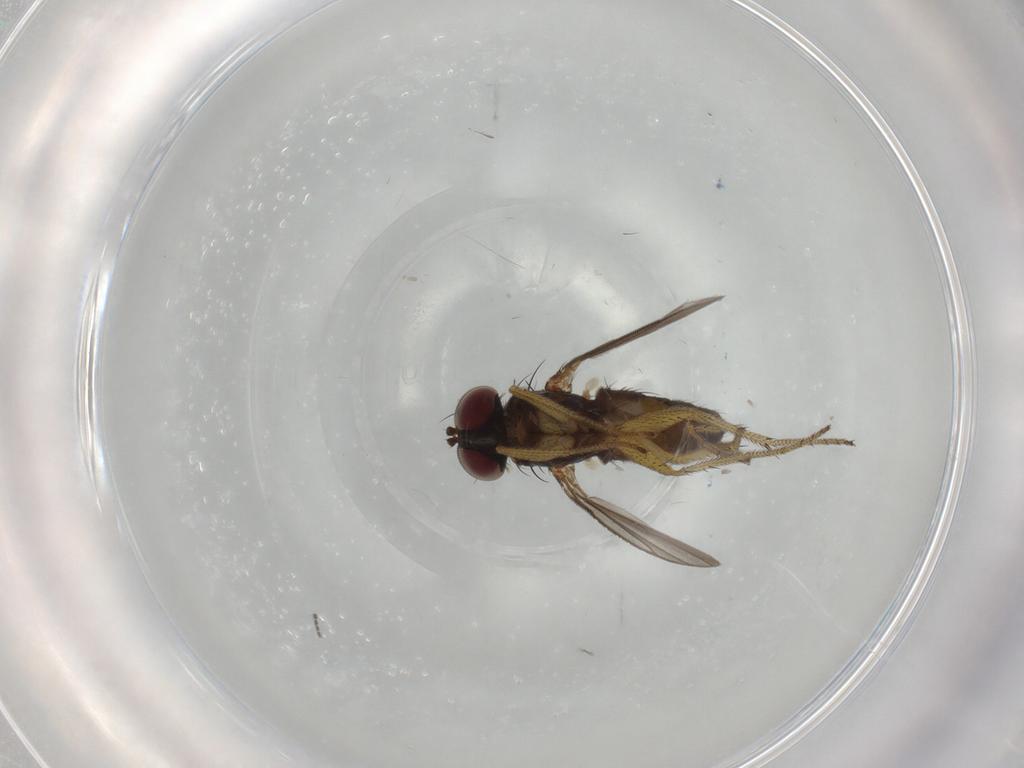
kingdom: Animalia
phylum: Arthropoda
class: Insecta
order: Diptera
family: Dolichopodidae
